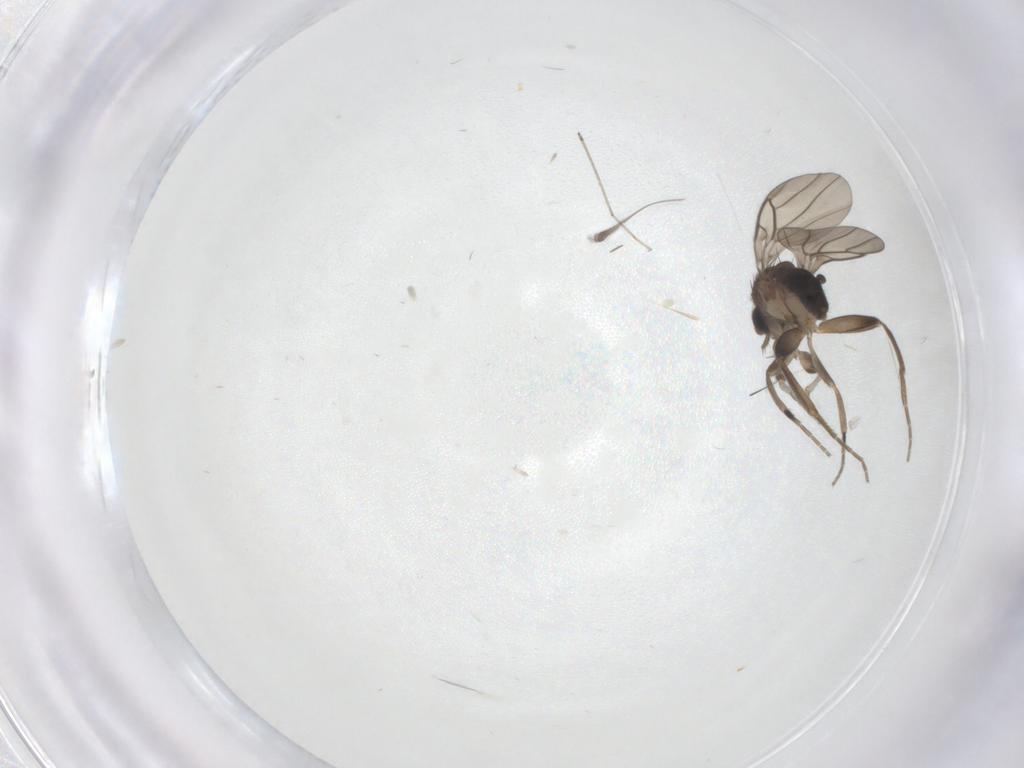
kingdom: Animalia
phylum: Arthropoda
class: Insecta
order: Diptera
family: Phoridae
